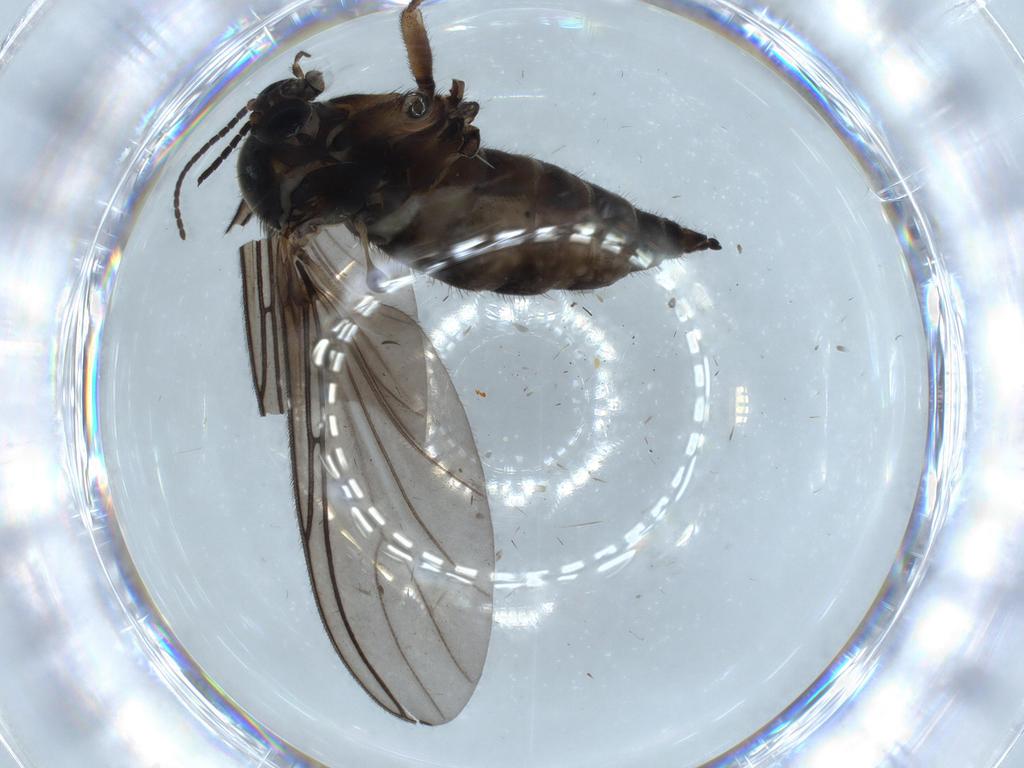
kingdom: Animalia
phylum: Arthropoda
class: Insecta
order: Diptera
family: Sciaridae
